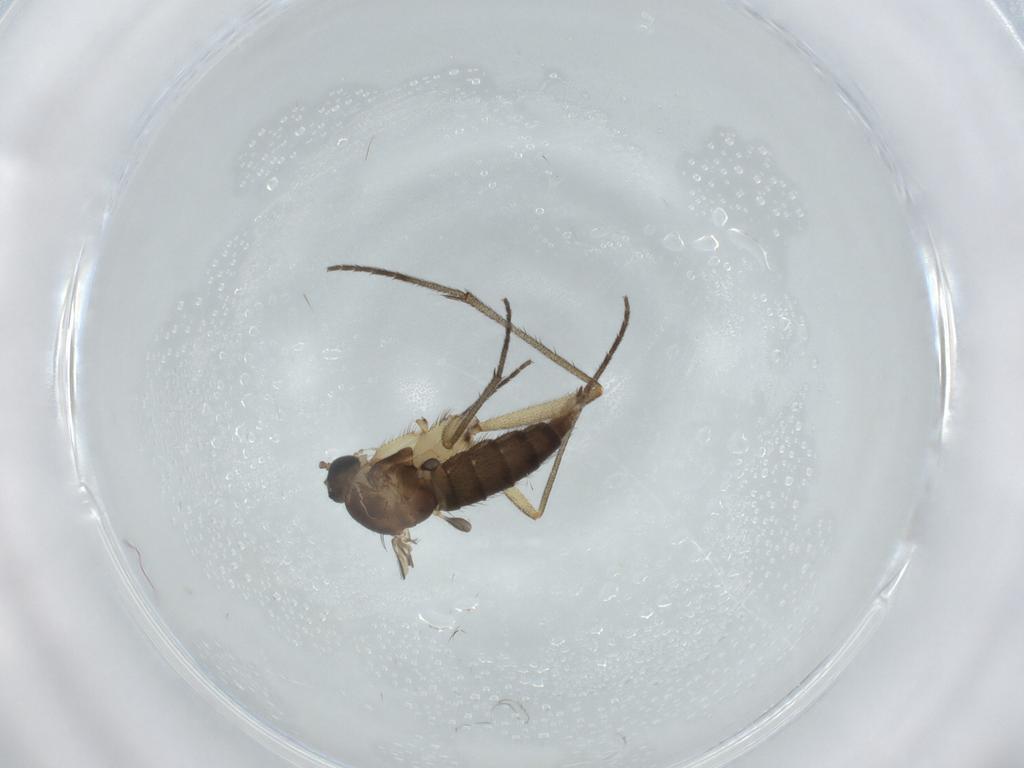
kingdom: Animalia
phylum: Arthropoda
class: Insecta
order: Diptera
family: Sciaridae
